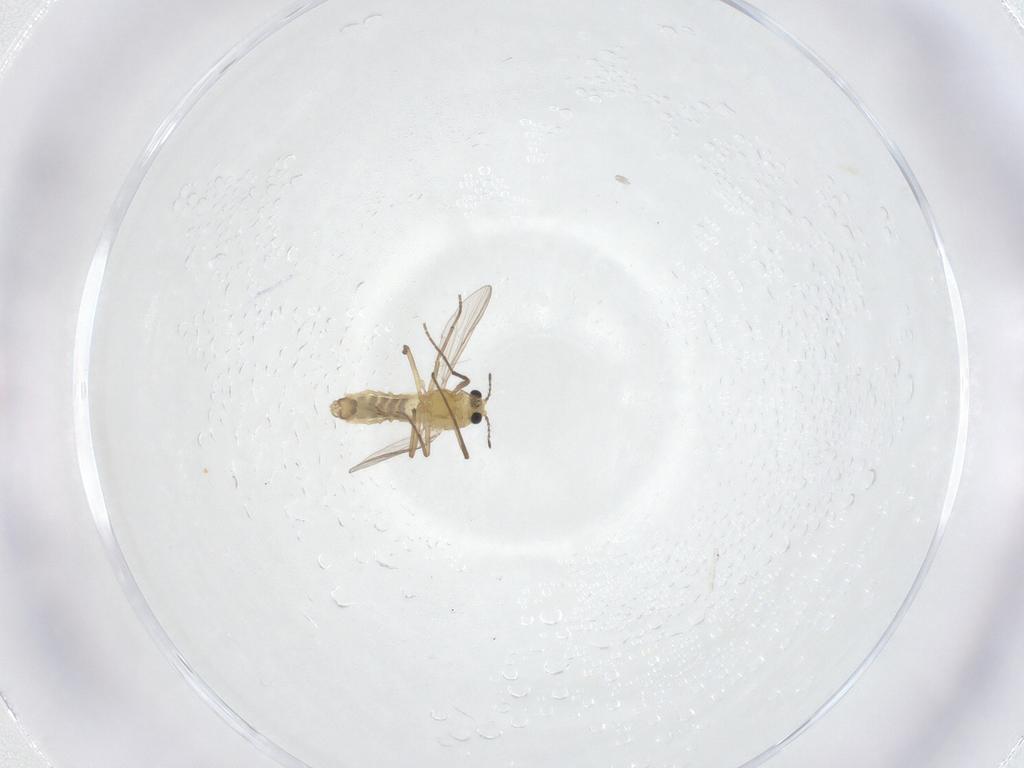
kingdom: Animalia
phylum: Arthropoda
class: Insecta
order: Diptera
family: Chironomidae
